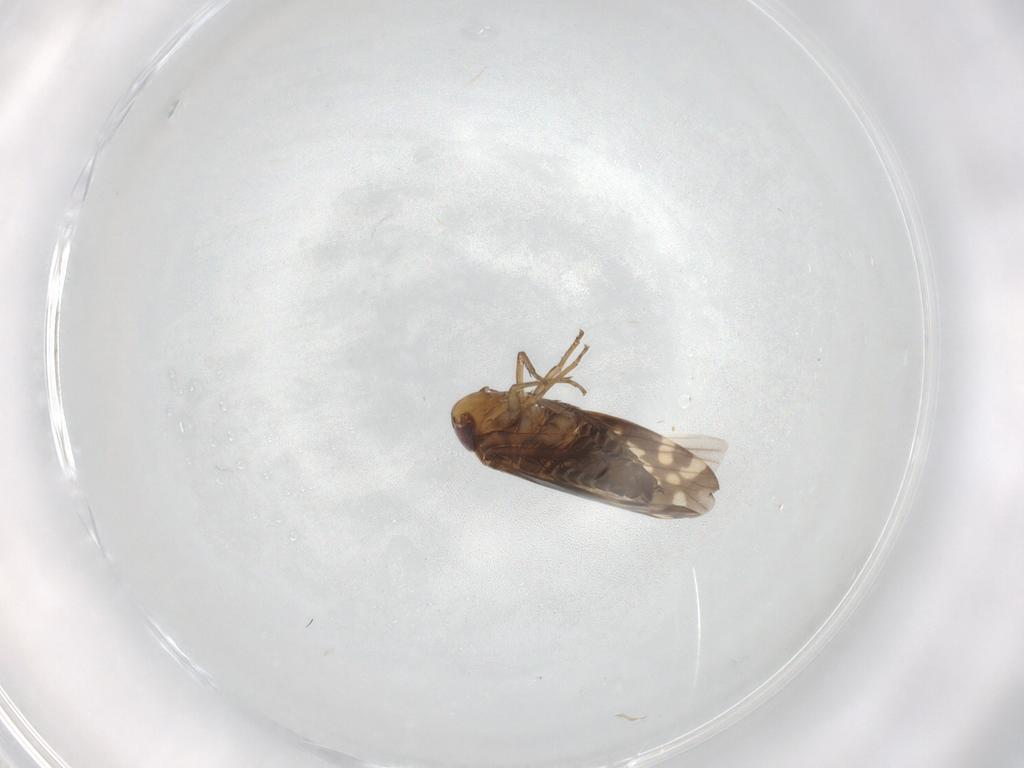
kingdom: Animalia
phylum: Arthropoda
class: Insecta
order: Hemiptera
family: Cicadellidae
